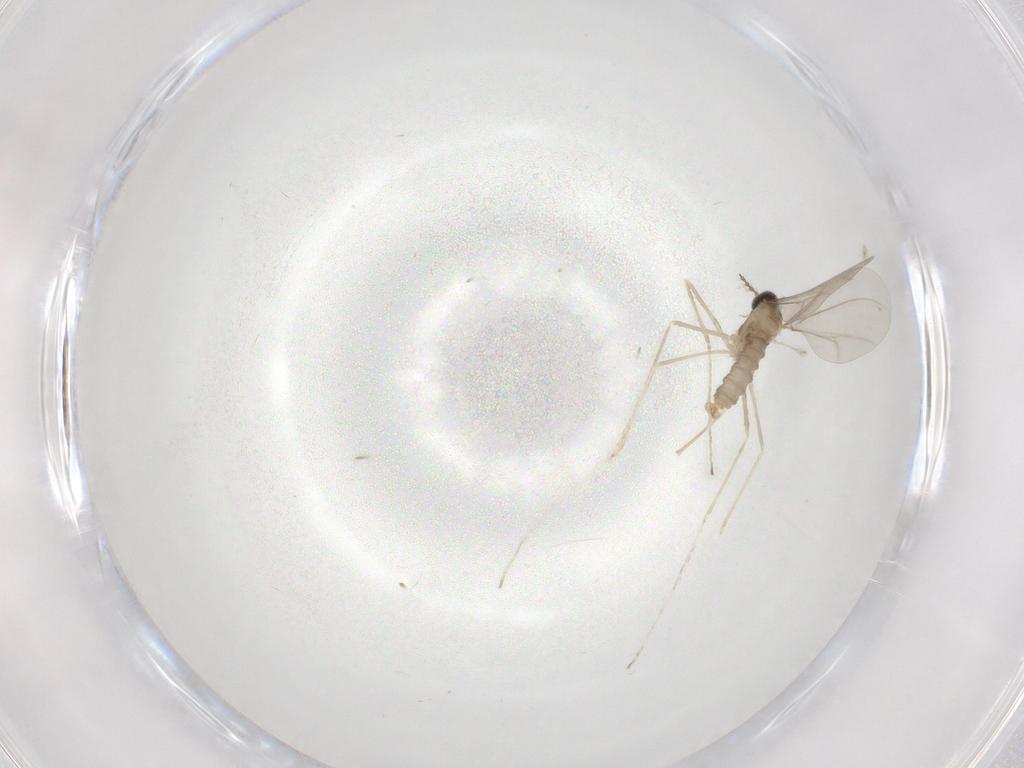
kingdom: Animalia
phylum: Arthropoda
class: Insecta
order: Diptera
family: Cecidomyiidae
